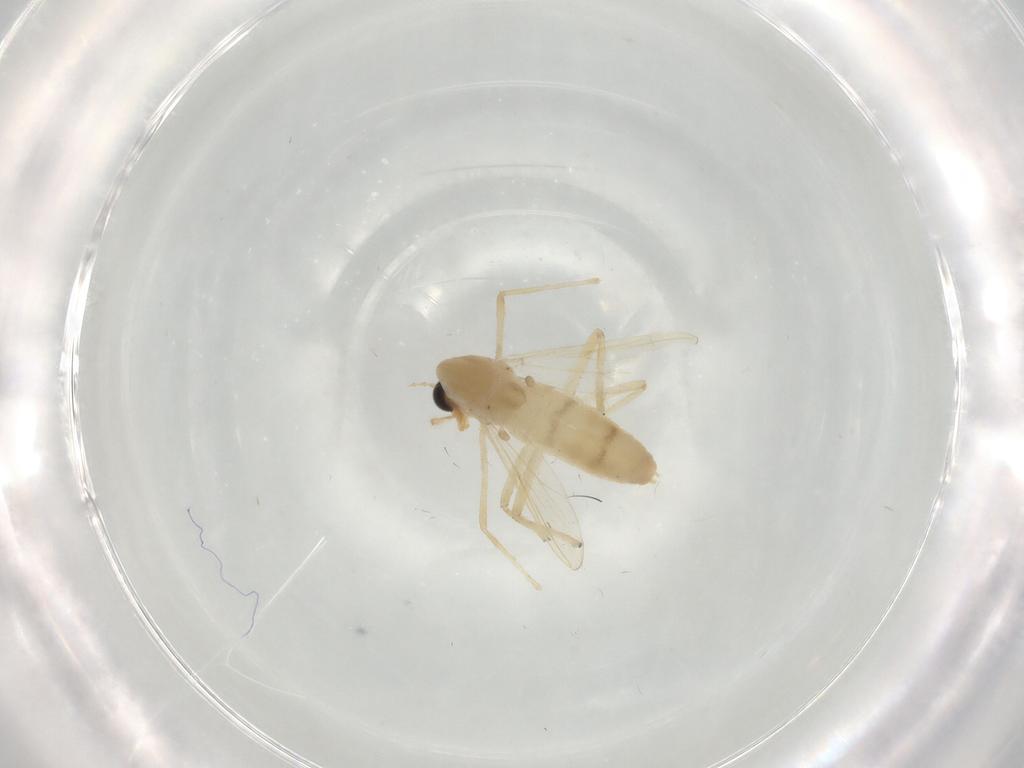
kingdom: Animalia
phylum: Arthropoda
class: Insecta
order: Diptera
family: Chironomidae
